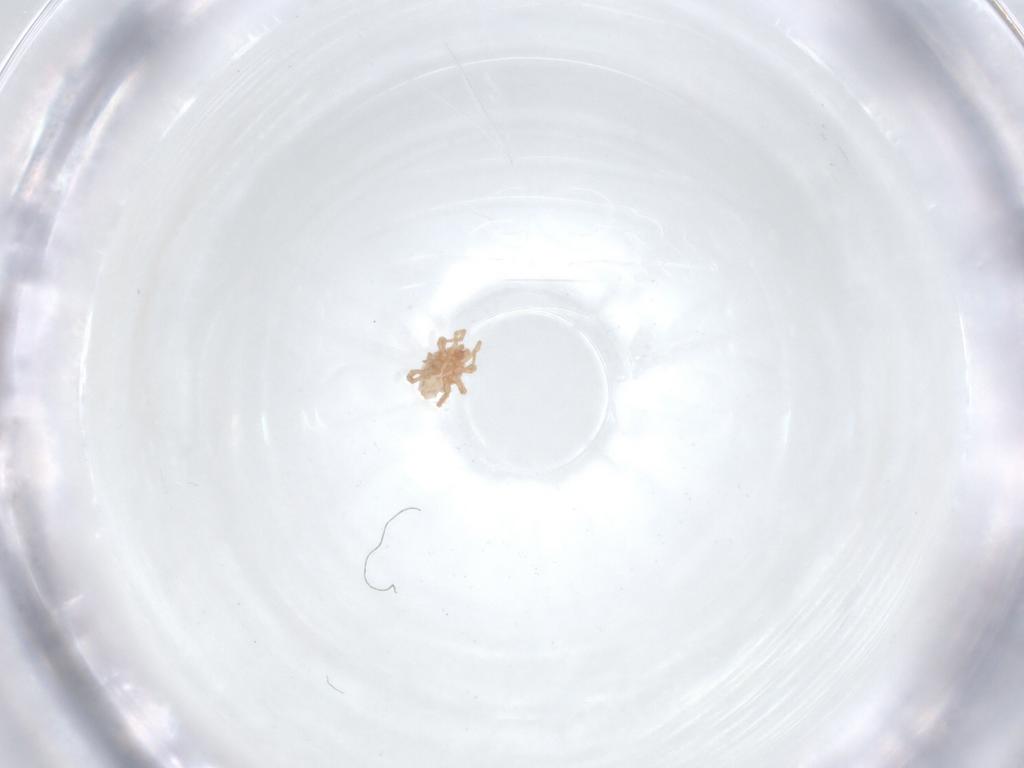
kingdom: Animalia
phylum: Arthropoda
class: Arachnida
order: Mesostigmata
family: Parasitidae
